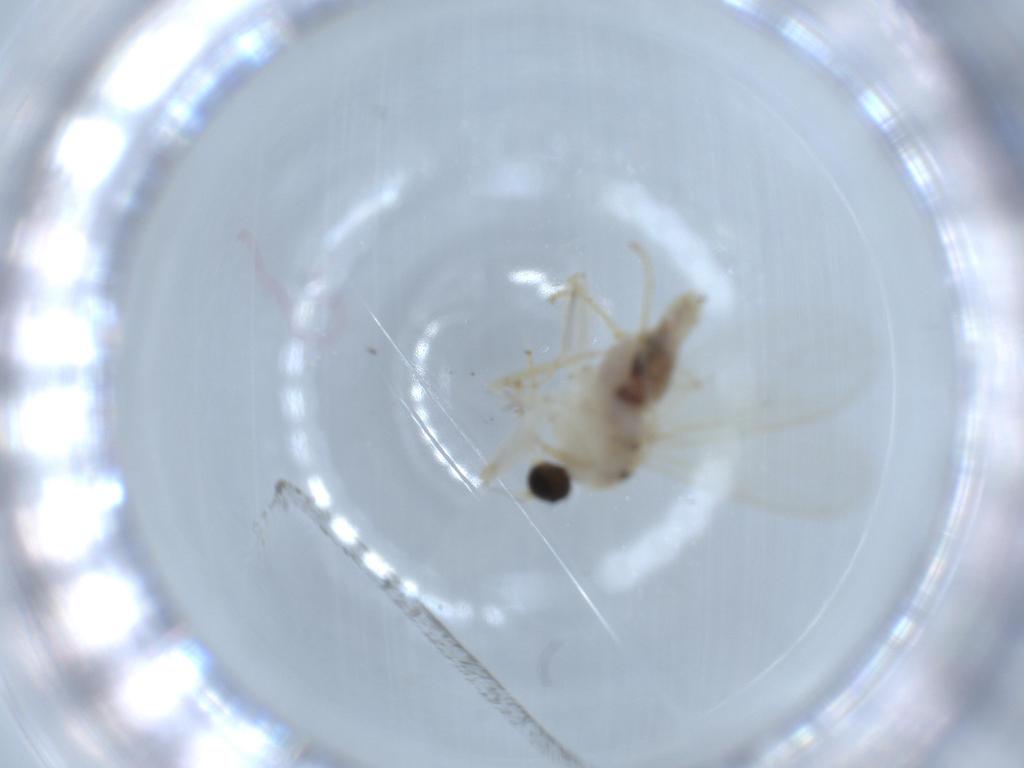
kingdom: Animalia
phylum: Arthropoda
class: Insecta
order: Diptera
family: Hybotidae
